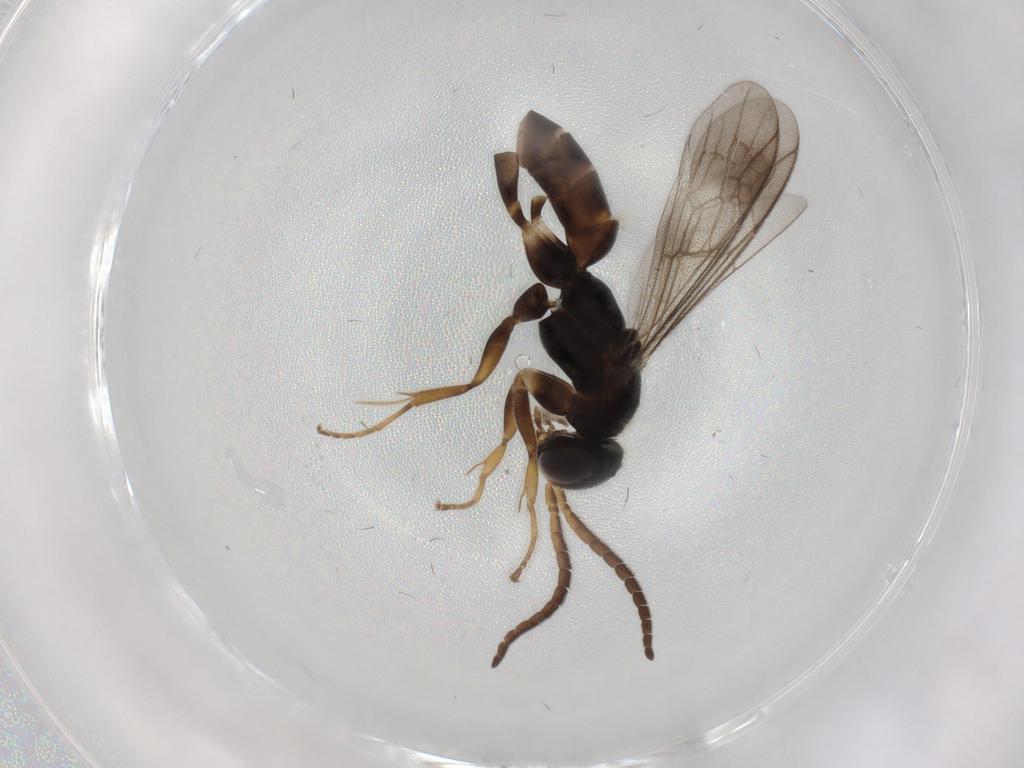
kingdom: Animalia
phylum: Arthropoda
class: Insecta
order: Hymenoptera
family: Pompilidae
